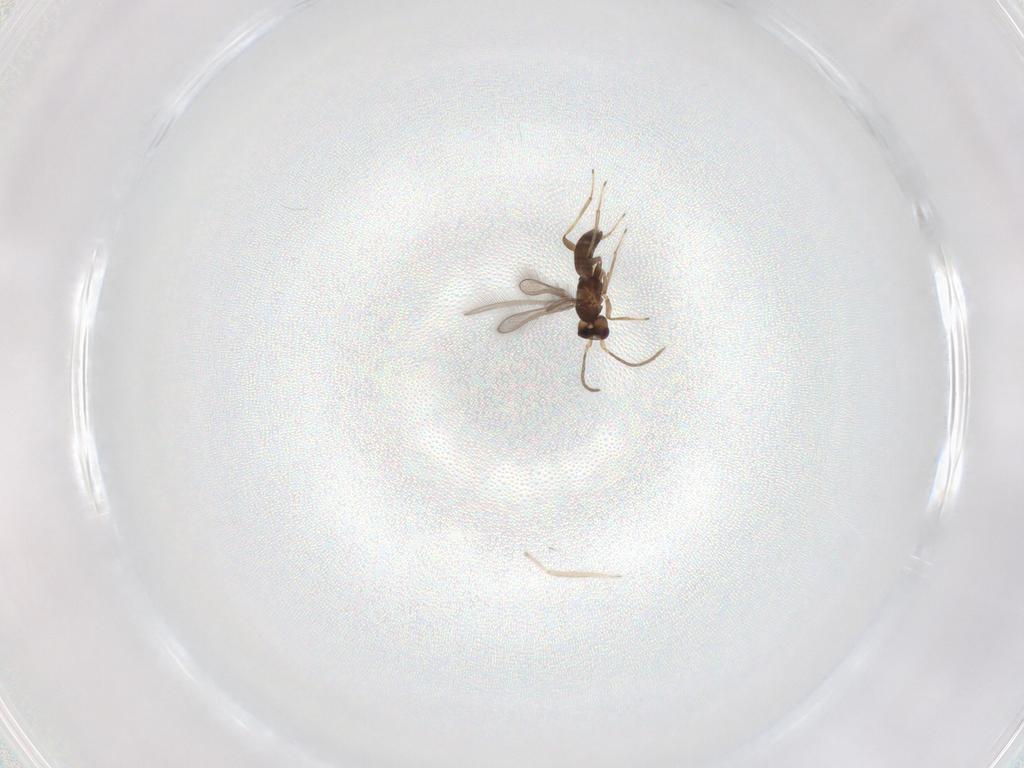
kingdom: Animalia
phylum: Arthropoda
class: Insecta
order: Diptera
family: Chironomidae
